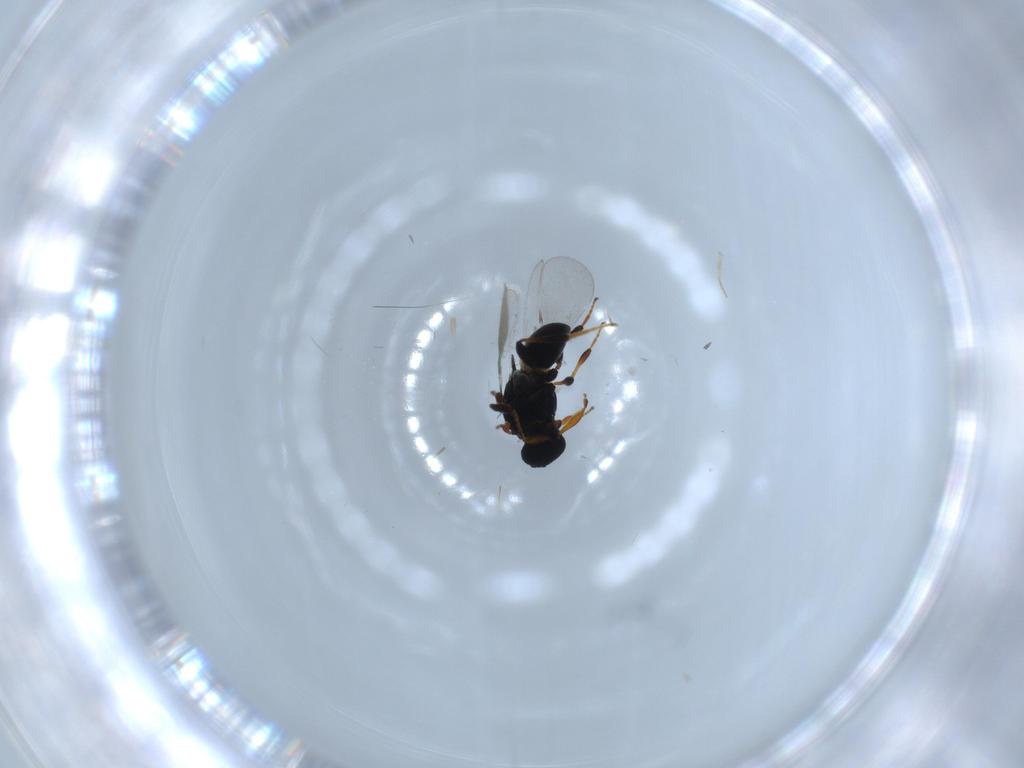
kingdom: Animalia
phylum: Arthropoda
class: Insecta
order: Hymenoptera
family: Platygastridae
